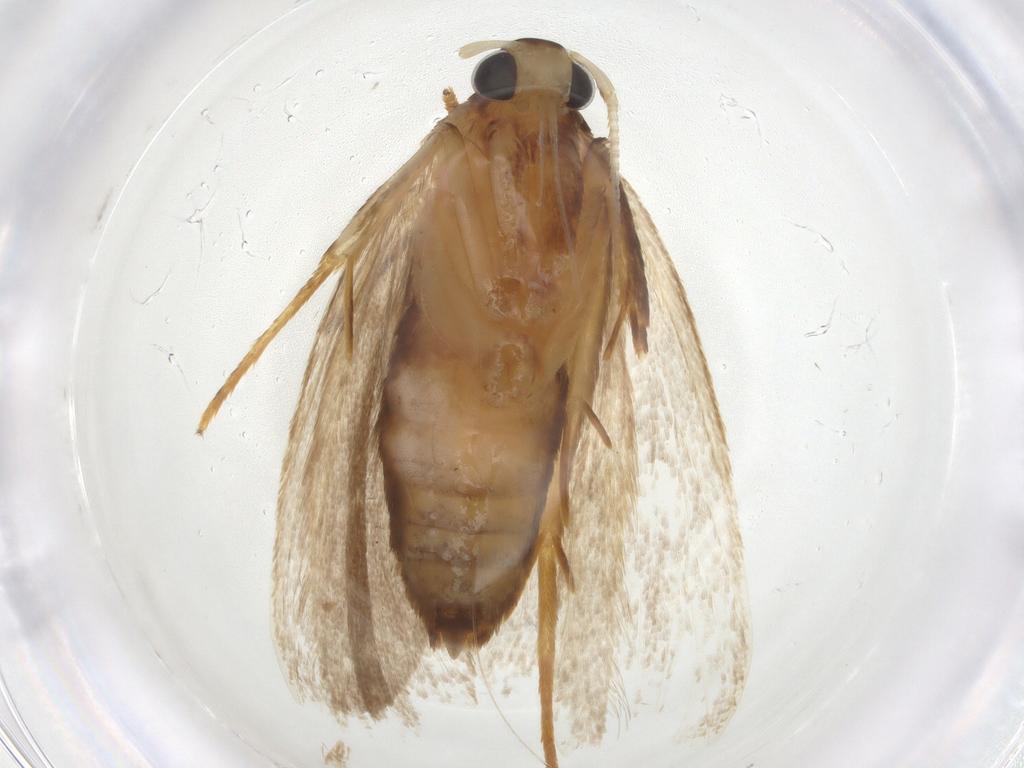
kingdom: Animalia
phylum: Arthropoda
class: Insecta
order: Lepidoptera
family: Lecithoceridae
